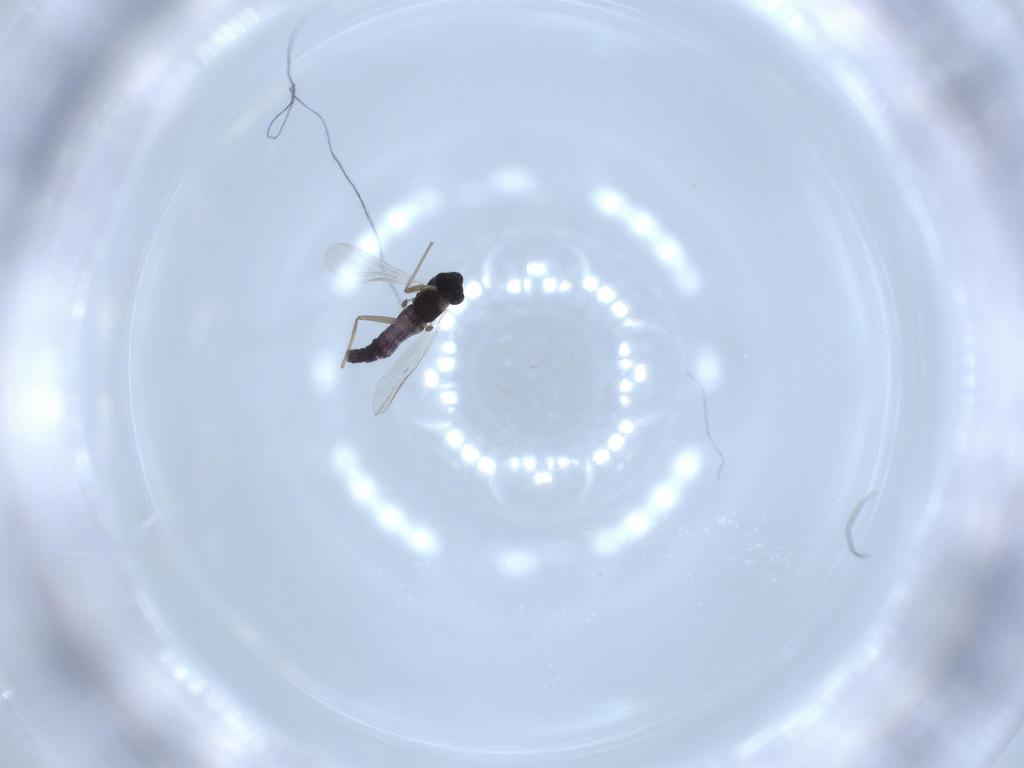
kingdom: Animalia
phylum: Arthropoda
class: Insecta
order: Diptera
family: Chironomidae
